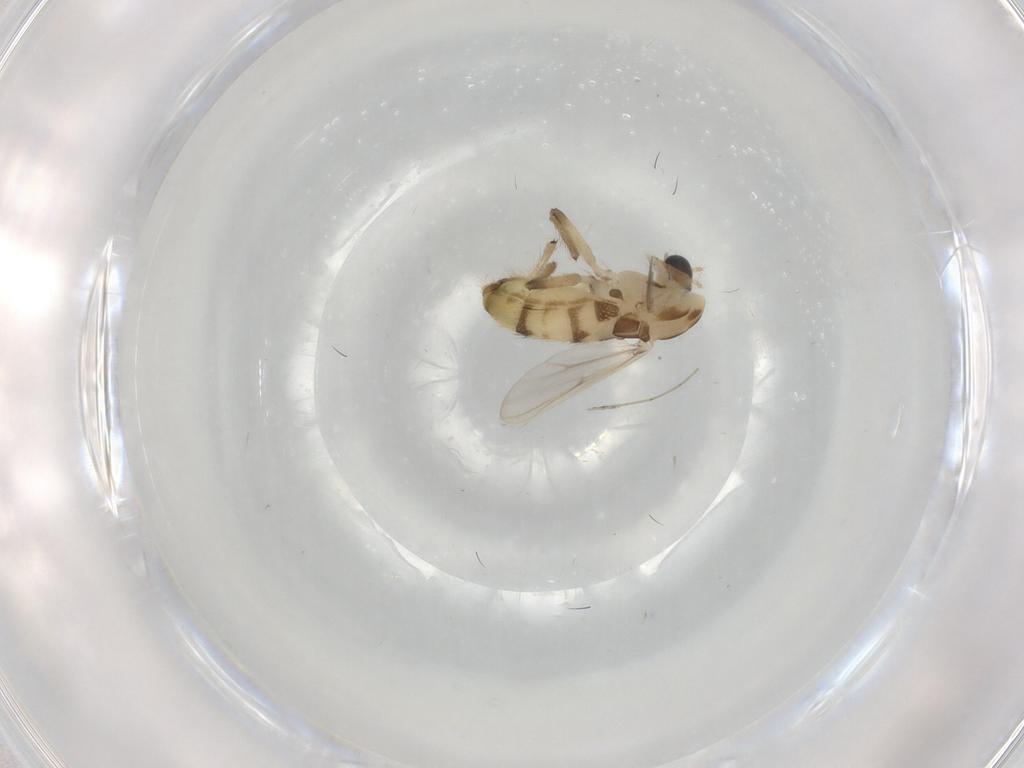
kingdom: Animalia
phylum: Arthropoda
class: Insecta
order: Diptera
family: Chironomidae
